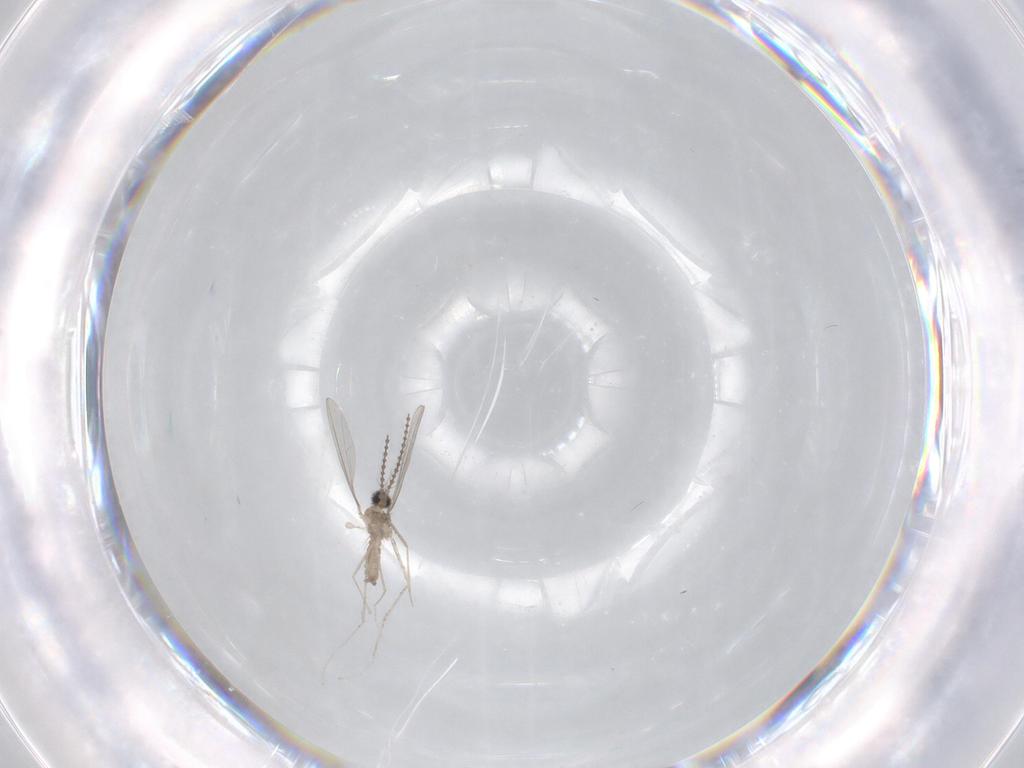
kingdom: Animalia
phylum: Arthropoda
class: Insecta
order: Diptera
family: Chironomidae
